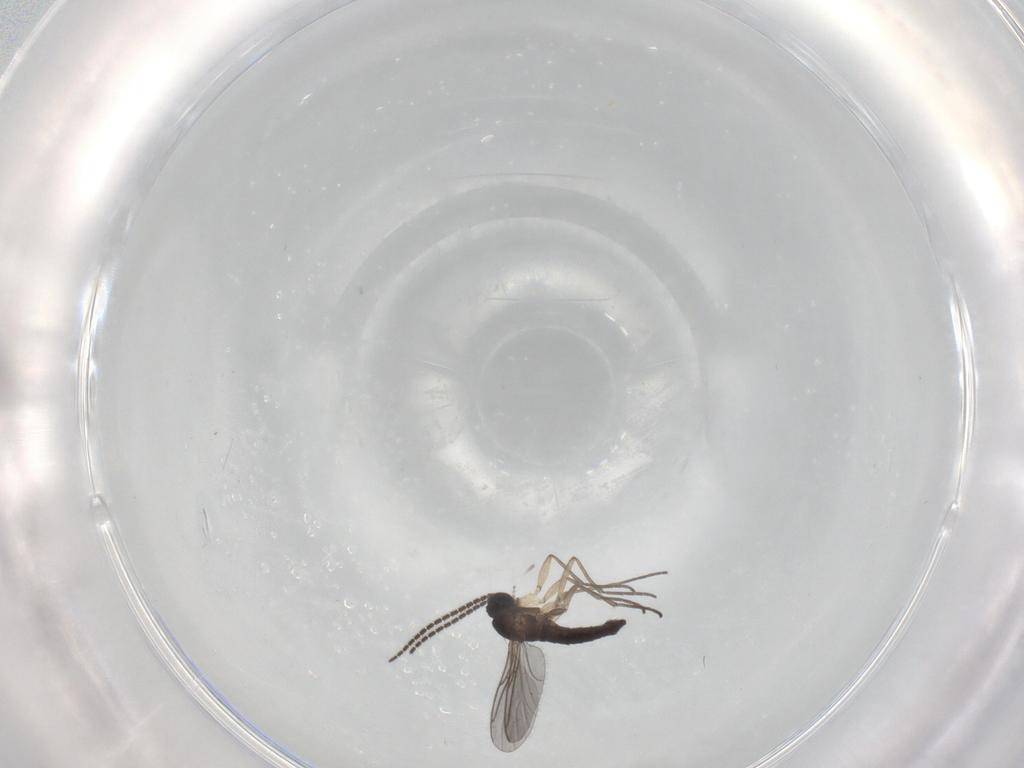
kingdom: Animalia
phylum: Arthropoda
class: Insecta
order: Diptera
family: Sciaridae
